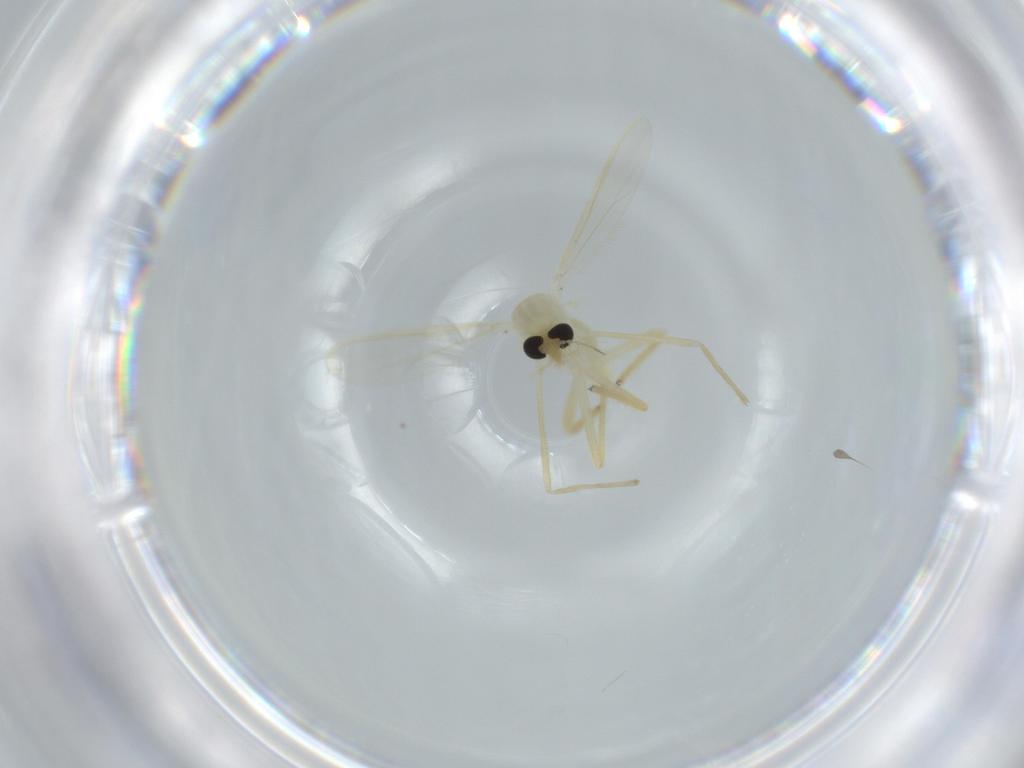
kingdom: Animalia
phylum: Arthropoda
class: Insecta
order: Diptera
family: Chironomidae
